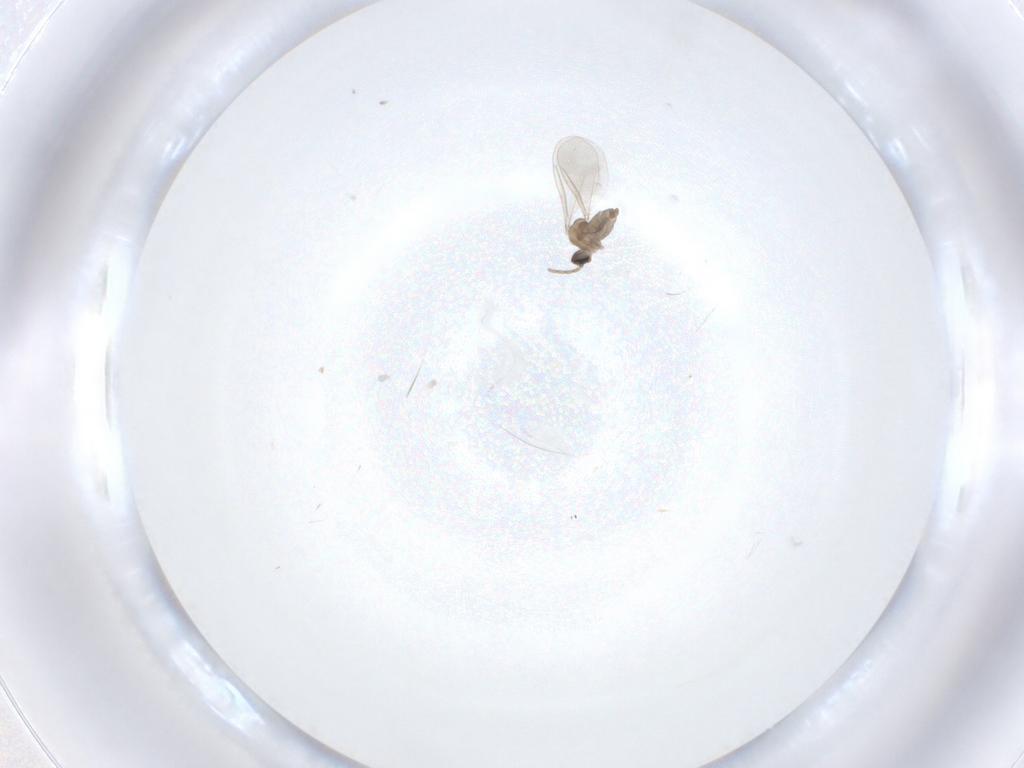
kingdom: Animalia
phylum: Arthropoda
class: Insecta
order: Diptera
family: Cecidomyiidae
